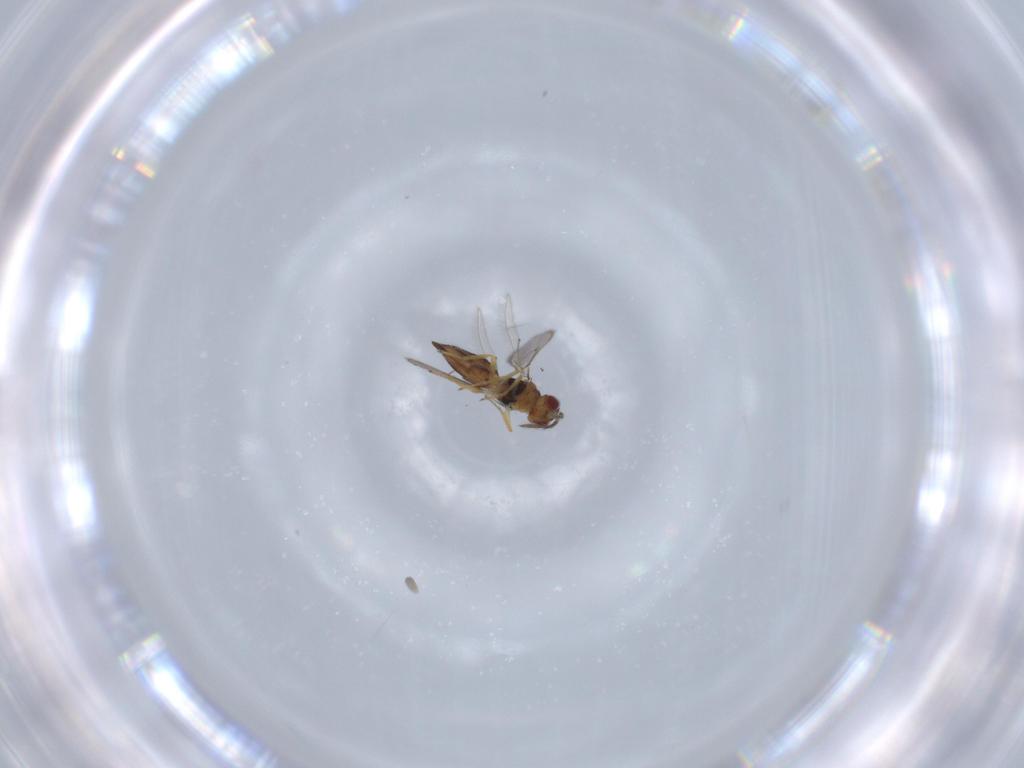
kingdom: Animalia
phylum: Arthropoda
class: Insecta
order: Hymenoptera
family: Eulophidae
